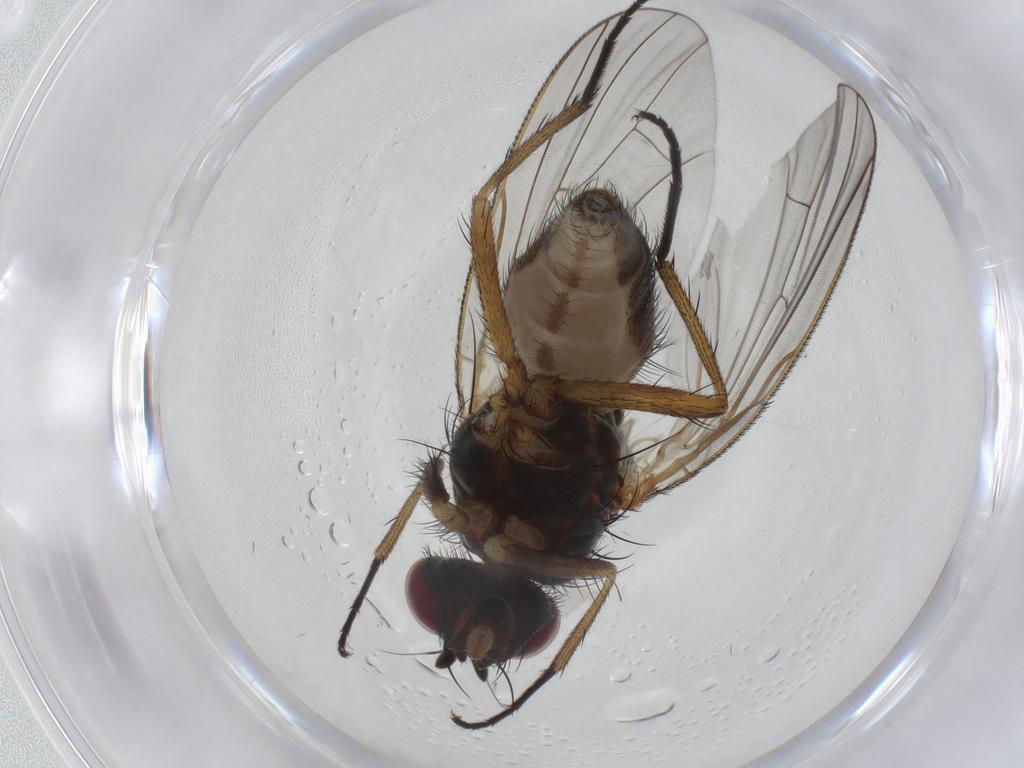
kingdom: Animalia
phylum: Arthropoda
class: Insecta
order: Diptera
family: Anthomyiidae
